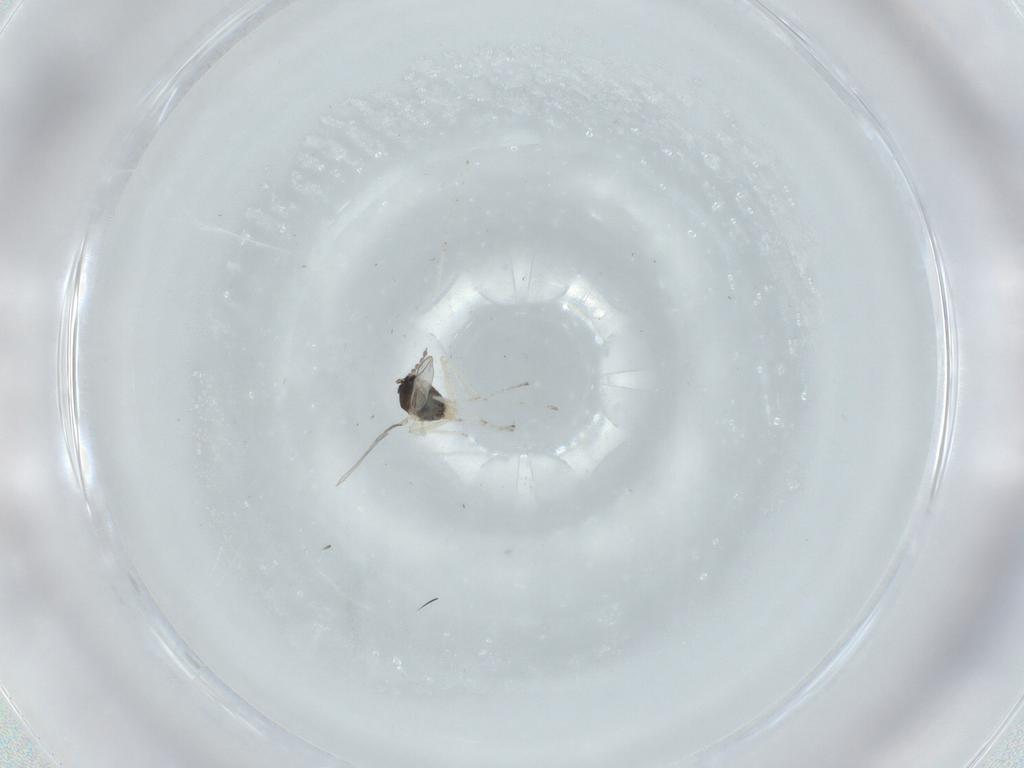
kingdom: Animalia
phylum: Arthropoda
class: Insecta
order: Diptera
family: Cecidomyiidae
